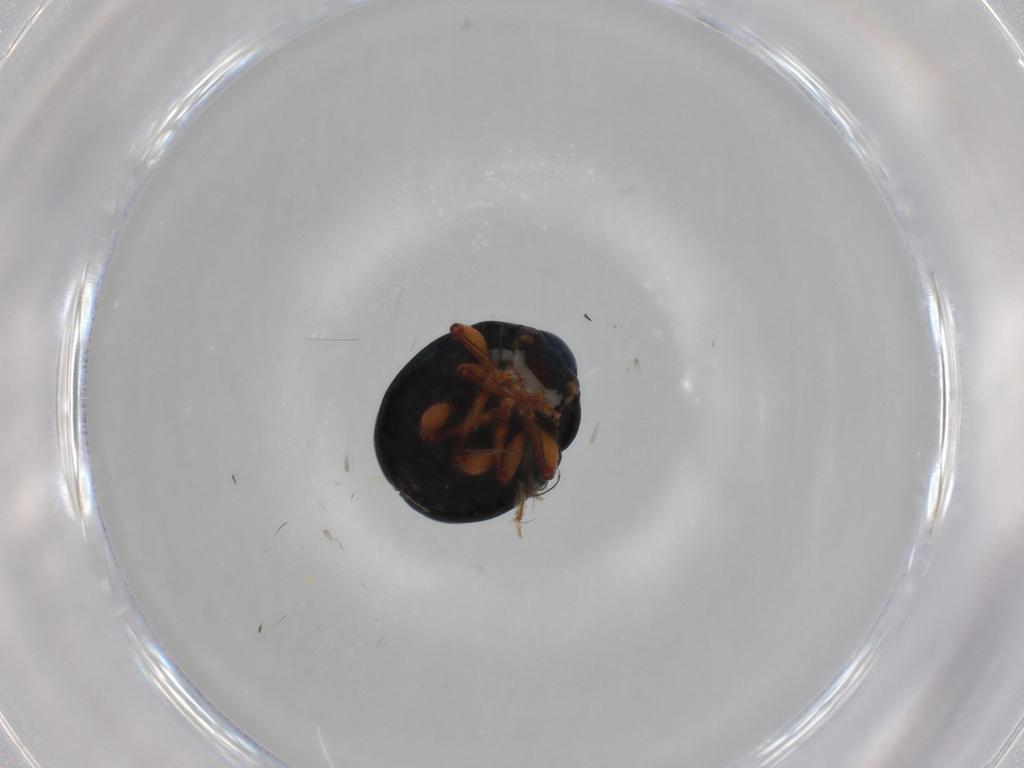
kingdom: Animalia
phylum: Arthropoda
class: Insecta
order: Coleoptera
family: Chrysomelidae
